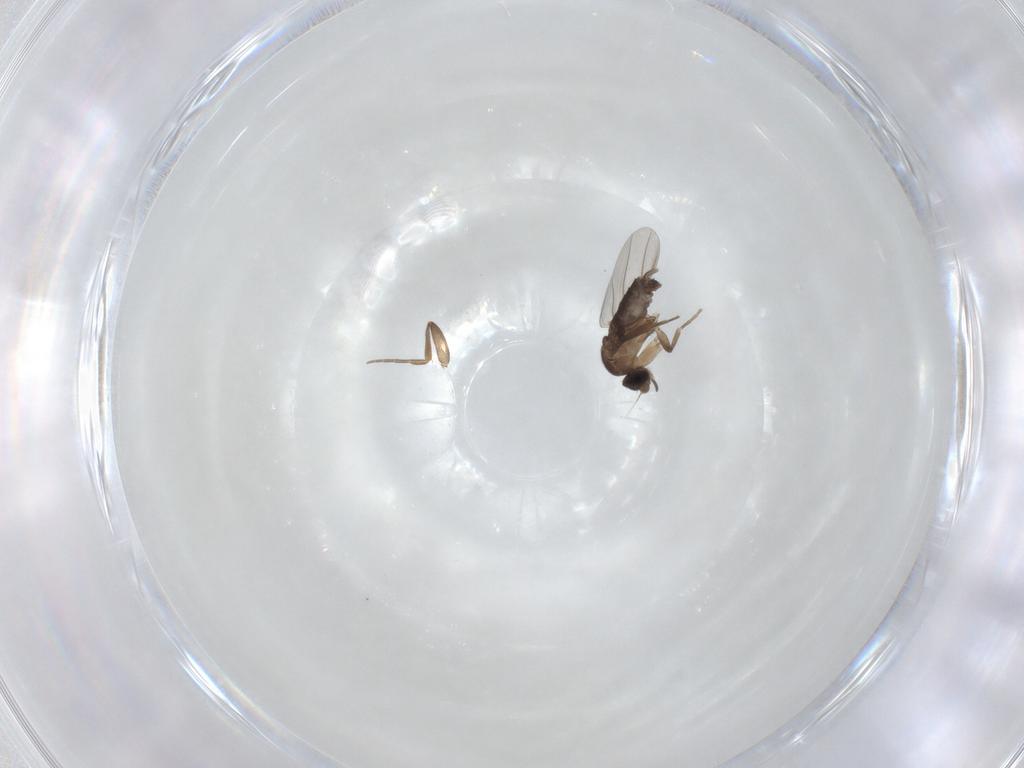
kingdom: Animalia
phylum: Arthropoda
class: Insecta
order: Diptera
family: Phoridae
